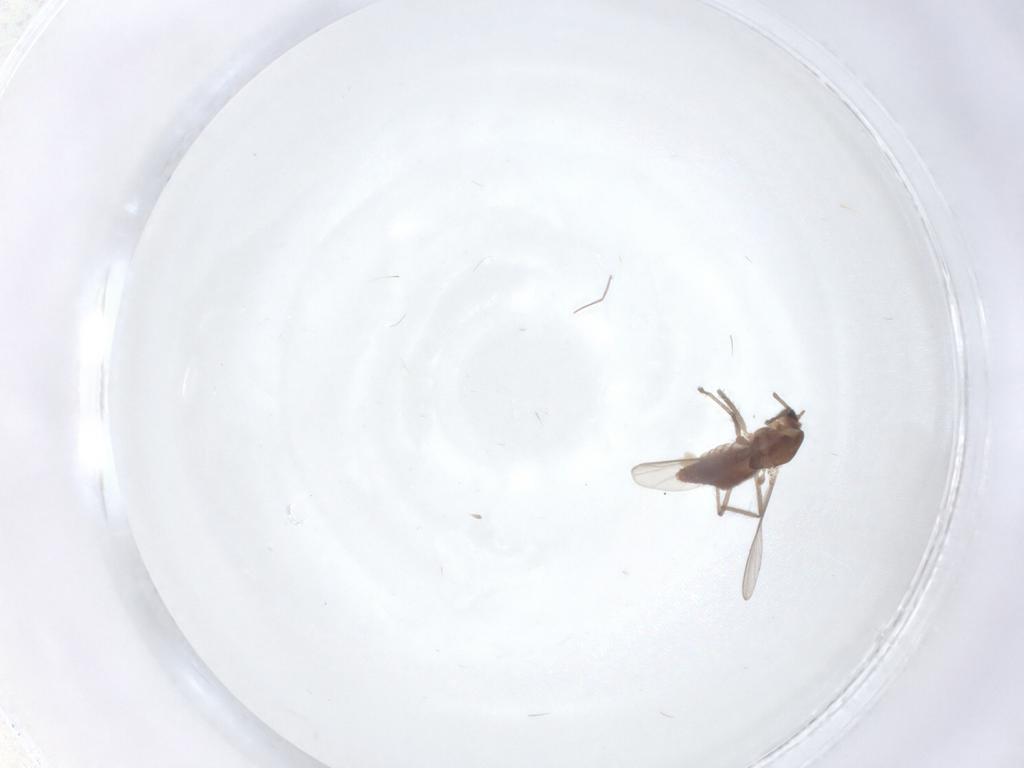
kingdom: Animalia
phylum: Arthropoda
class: Insecta
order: Diptera
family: Chironomidae
